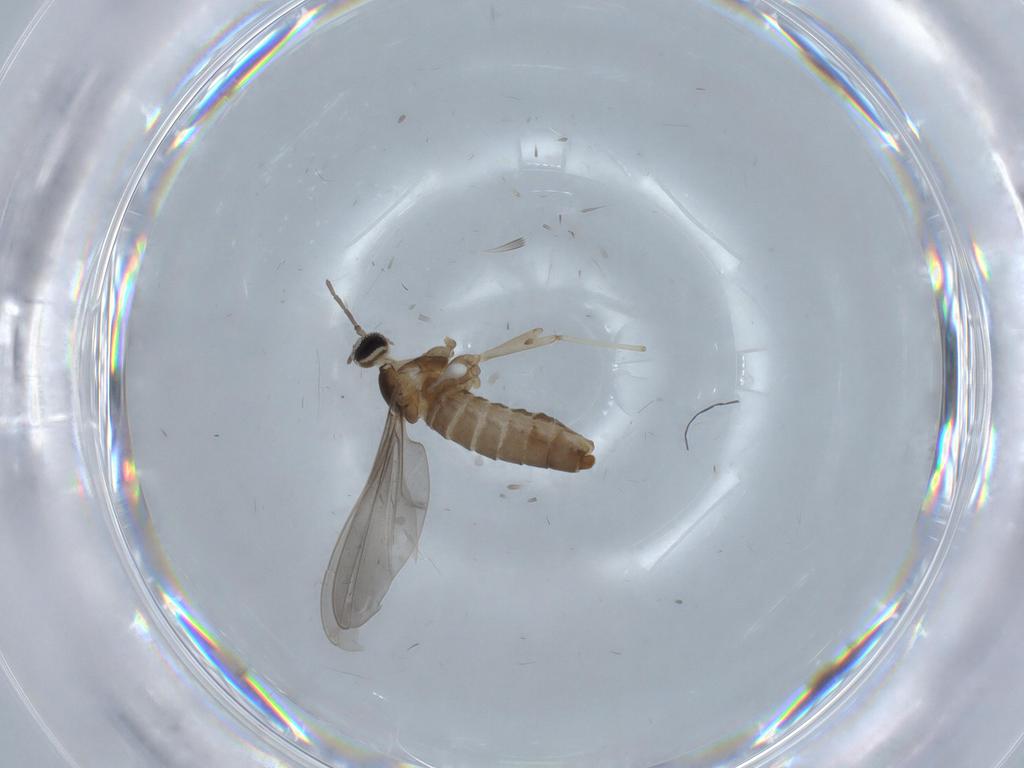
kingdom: Animalia
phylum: Arthropoda
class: Insecta
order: Diptera
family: Cecidomyiidae
